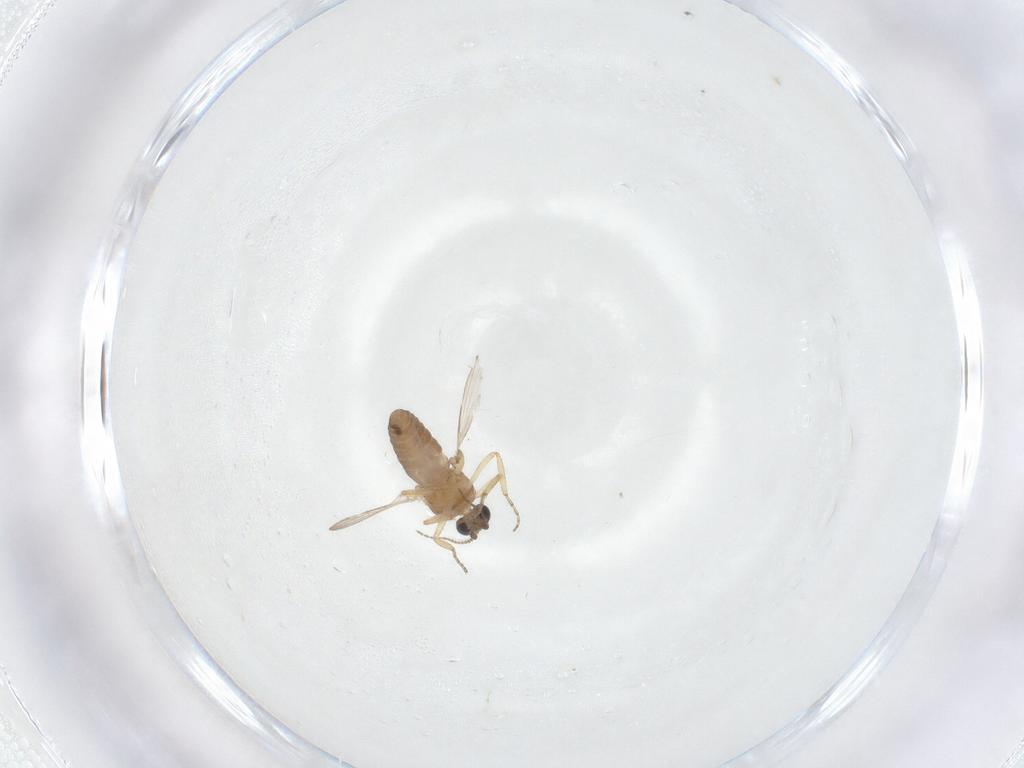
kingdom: Animalia
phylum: Arthropoda
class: Insecta
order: Diptera
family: Ceratopogonidae
